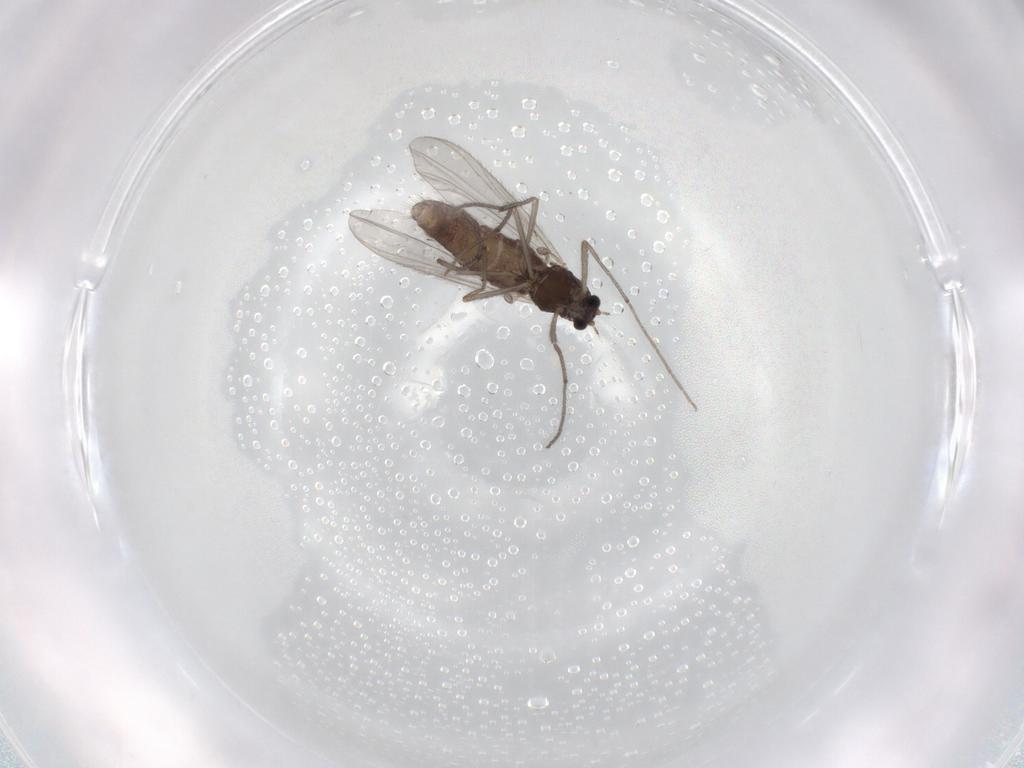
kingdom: Animalia
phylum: Arthropoda
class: Insecta
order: Diptera
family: Chironomidae
